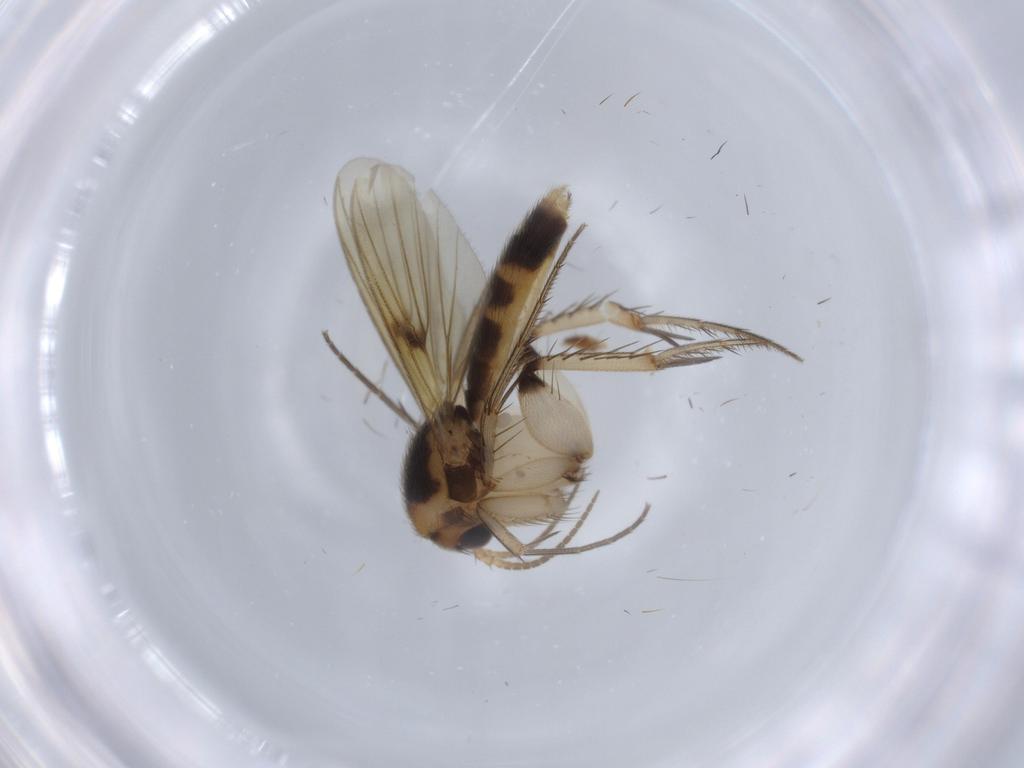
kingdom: Animalia
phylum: Arthropoda
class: Insecta
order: Diptera
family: Mycetophilidae
